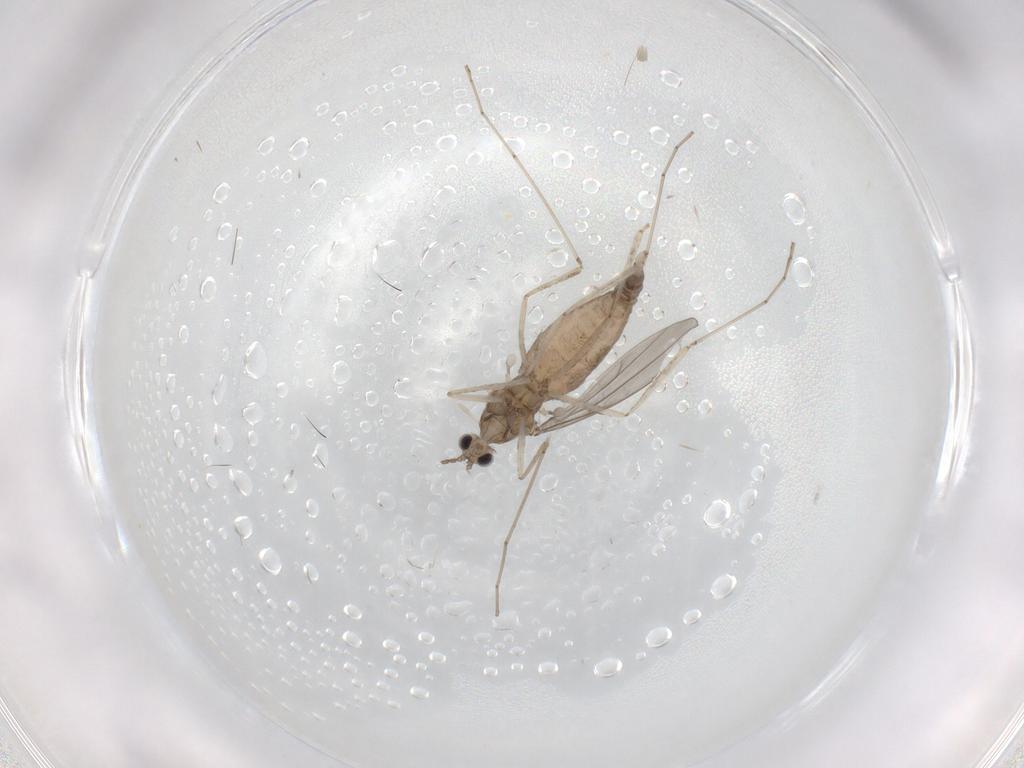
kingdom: Animalia
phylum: Arthropoda
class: Insecta
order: Diptera
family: Cecidomyiidae
